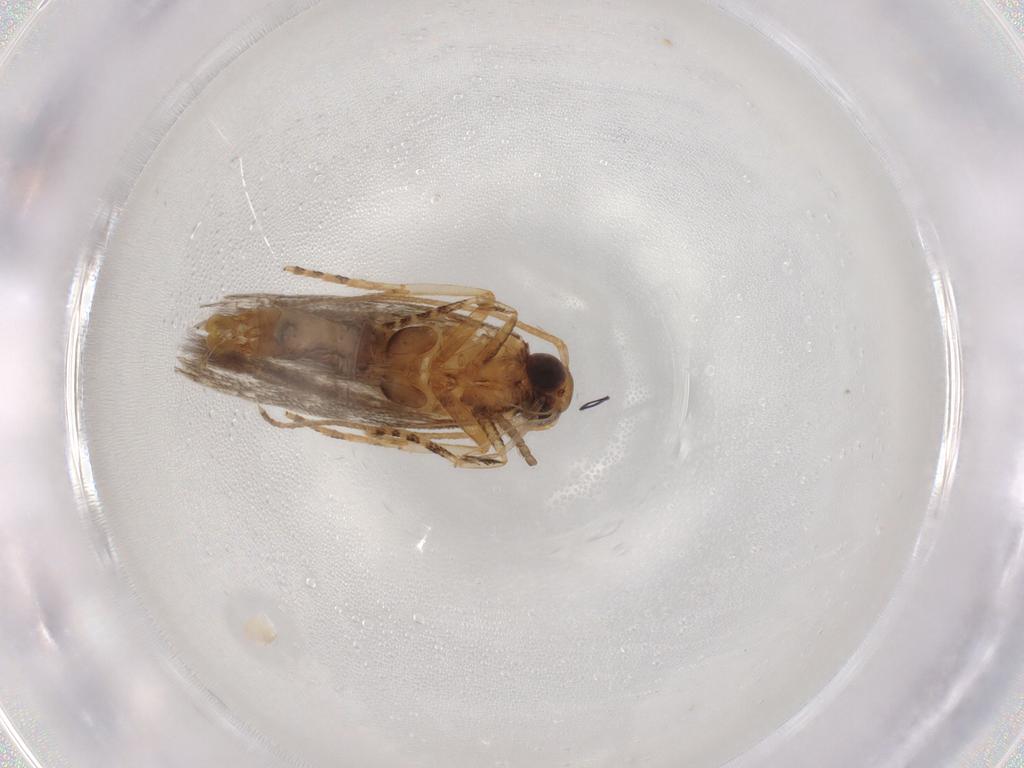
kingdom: Animalia
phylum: Arthropoda
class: Insecta
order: Lepidoptera
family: Plutellidae
